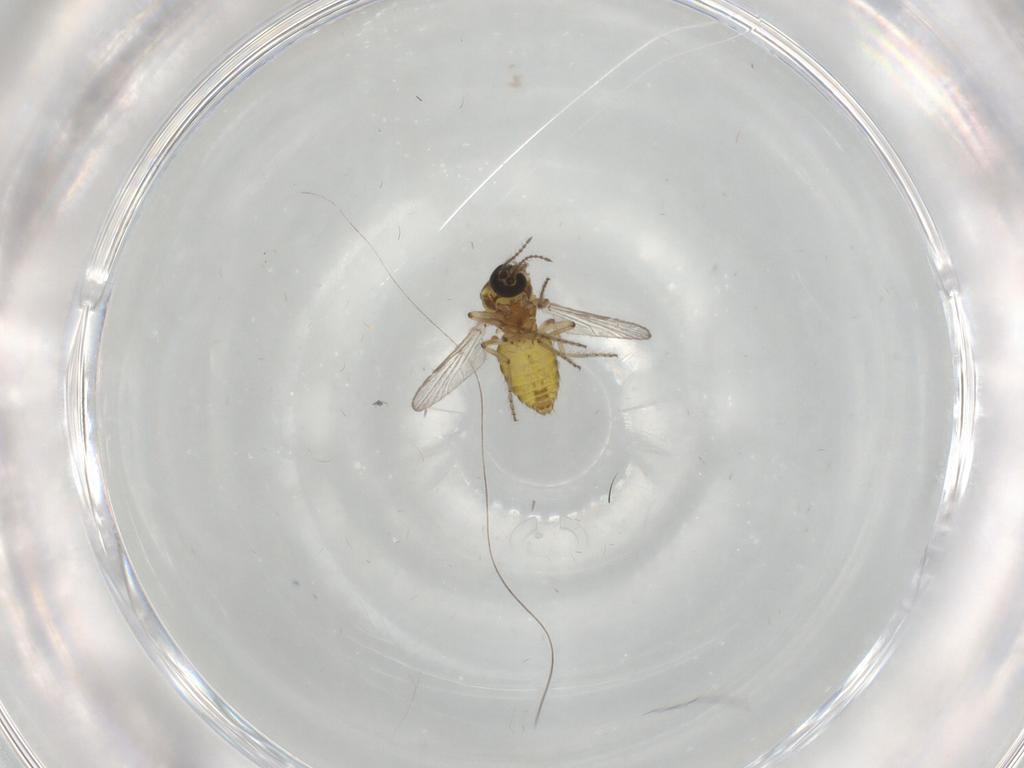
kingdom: Animalia
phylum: Arthropoda
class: Insecta
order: Diptera
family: Ceratopogonidae
